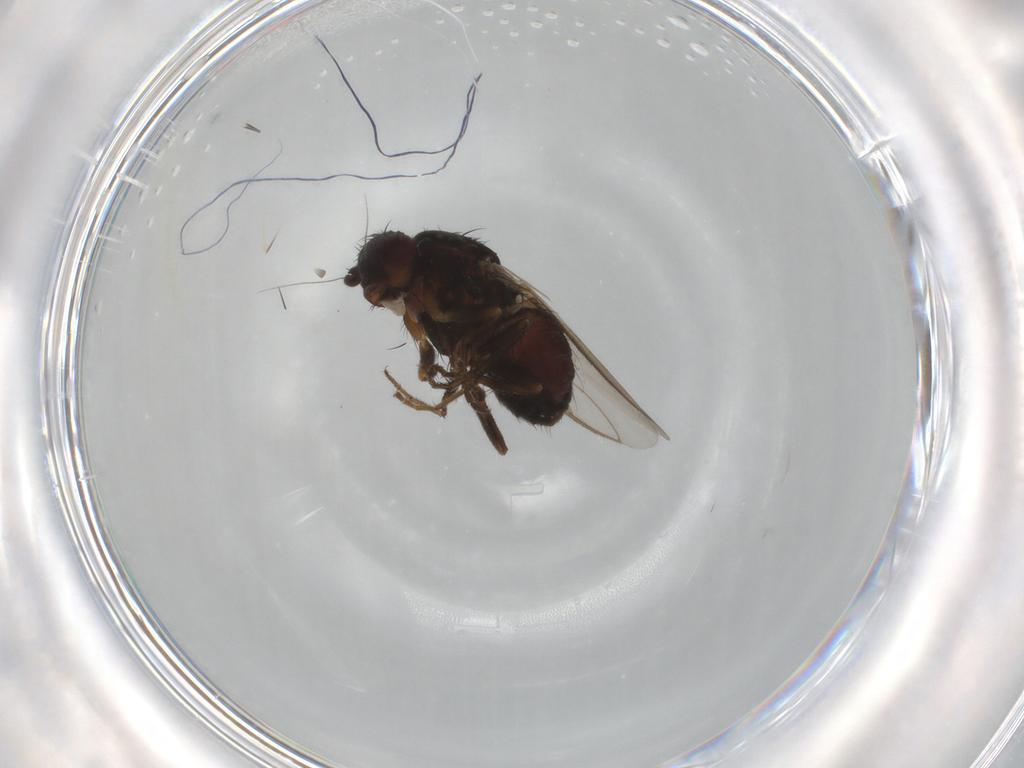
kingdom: Animalia
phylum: Arthropoda
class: Insecta
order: Diptera
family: Sphaeroceridae
